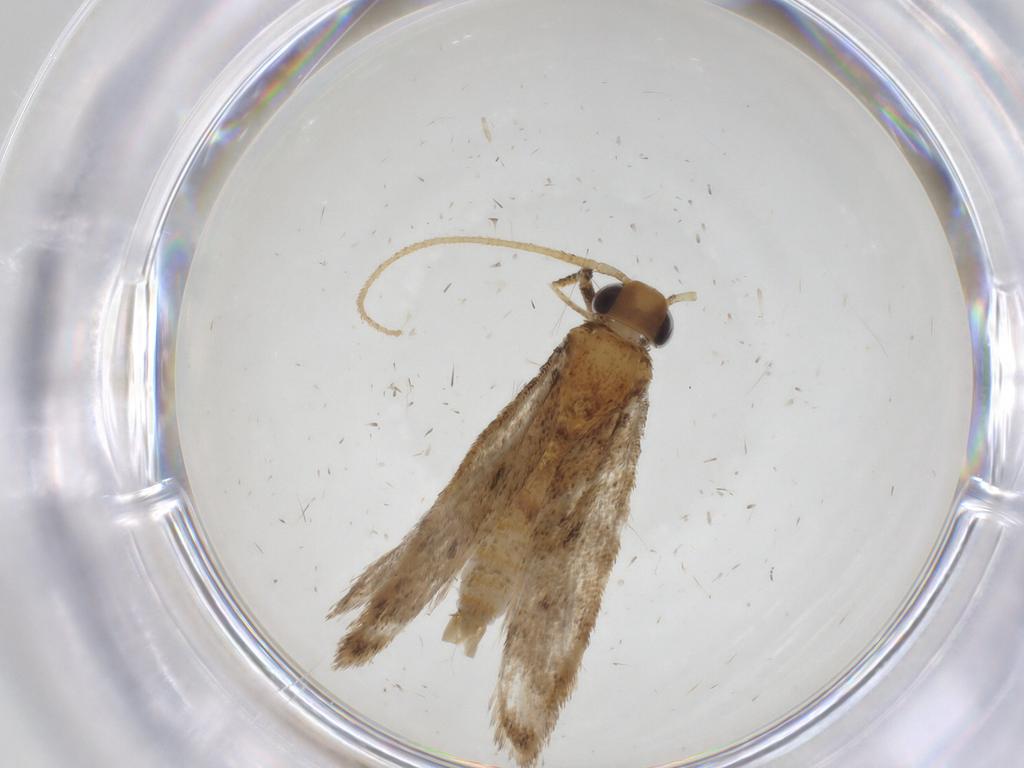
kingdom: Animalia
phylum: Arthropoda
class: Insecta
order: Lepidoptera
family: Oecophoridae
